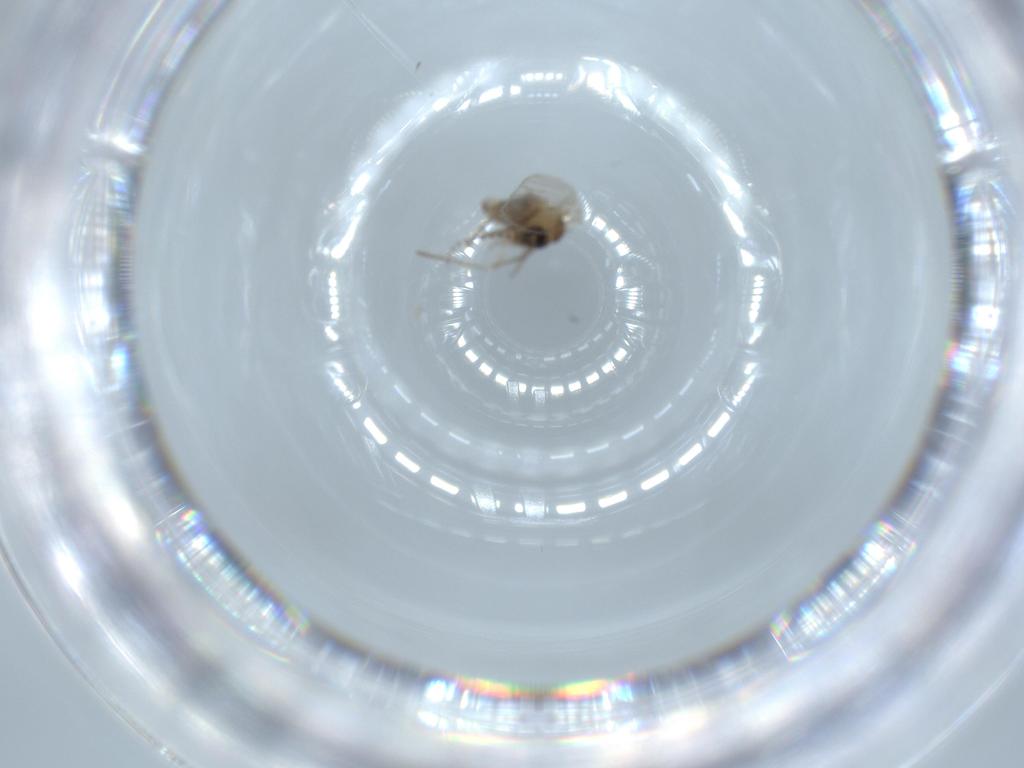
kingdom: Animalia
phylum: Arthropoda
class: Insecta
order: Diptera
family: Psychodidae
